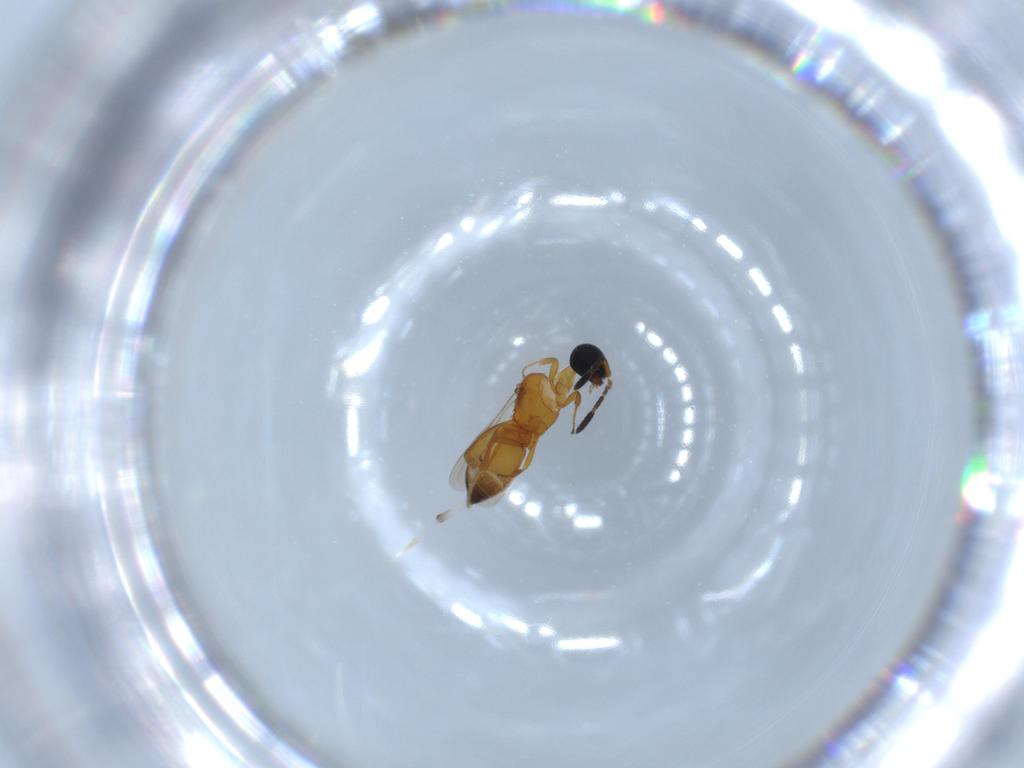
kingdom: Animalia
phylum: Arthropoda
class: Insecta
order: Hymenoptera
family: Scelionidae
